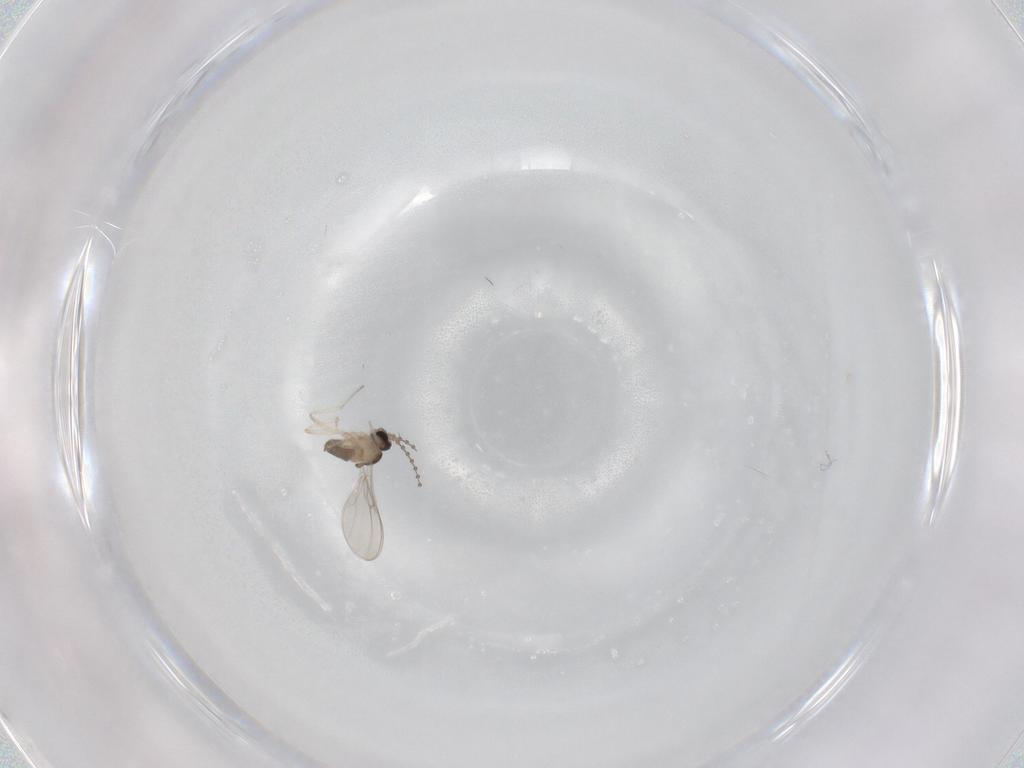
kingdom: Animalia
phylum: Arthropoda
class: Insecta
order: Diptera
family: Cecidomyiidae
